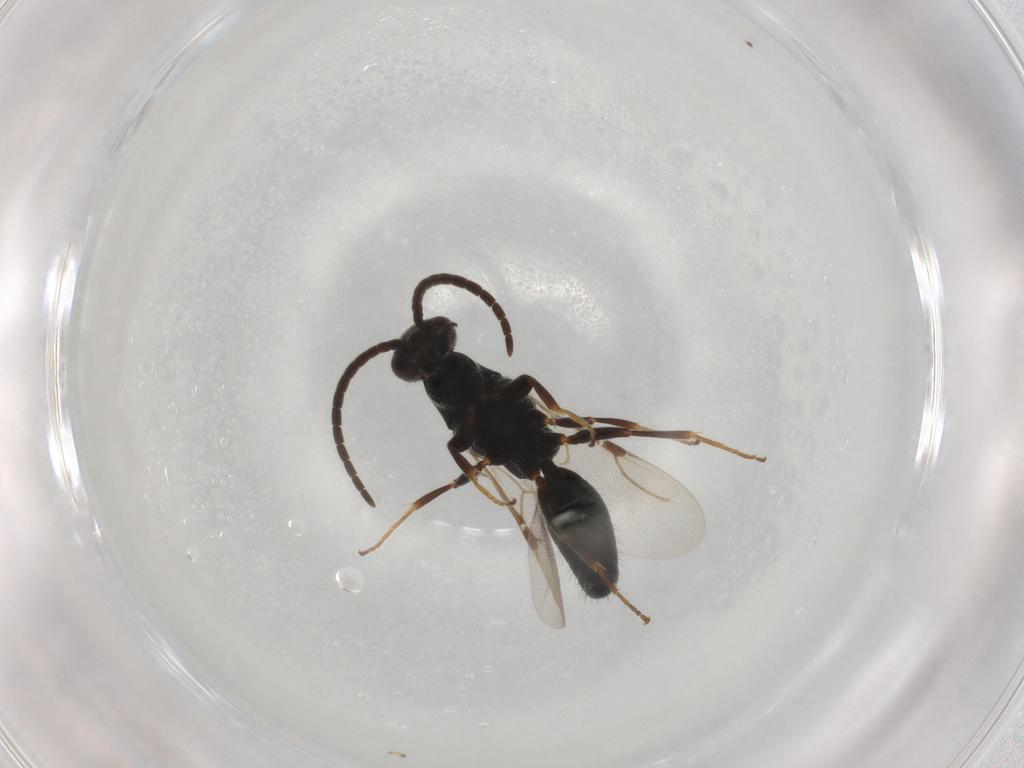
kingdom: Animalia
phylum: Arthropoda
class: Insecta
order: Hymenoptera
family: Bethylidae
